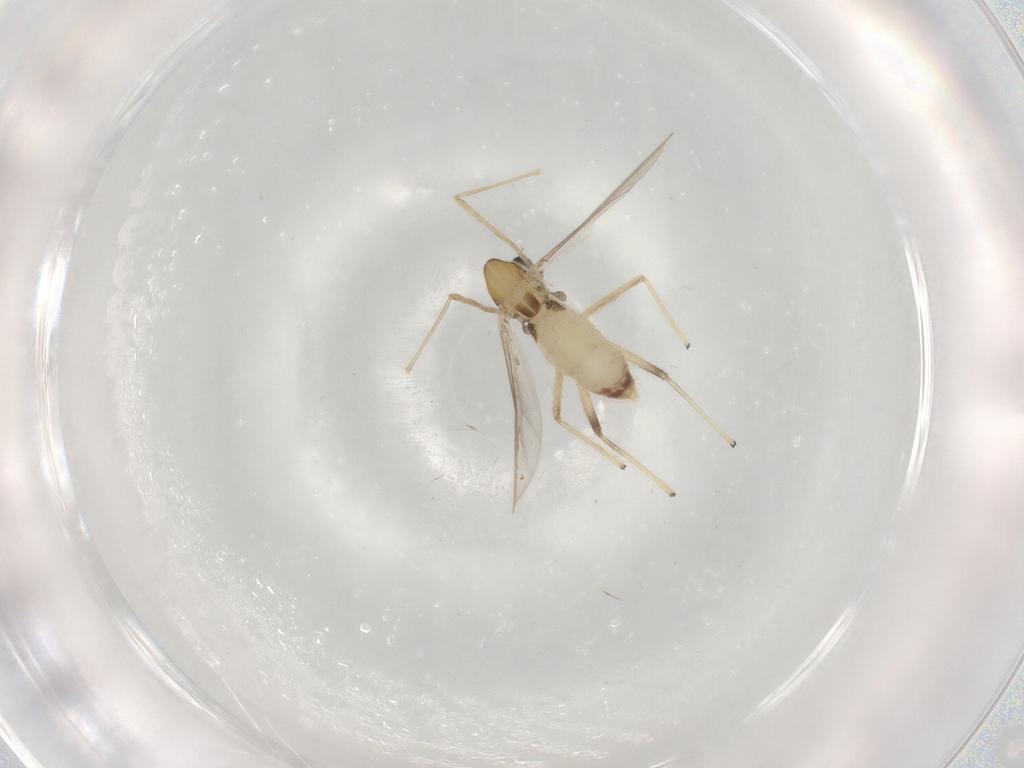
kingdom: Animalia
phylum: Arthropoda
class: Insecta
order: Diptera
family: Chironomidae
